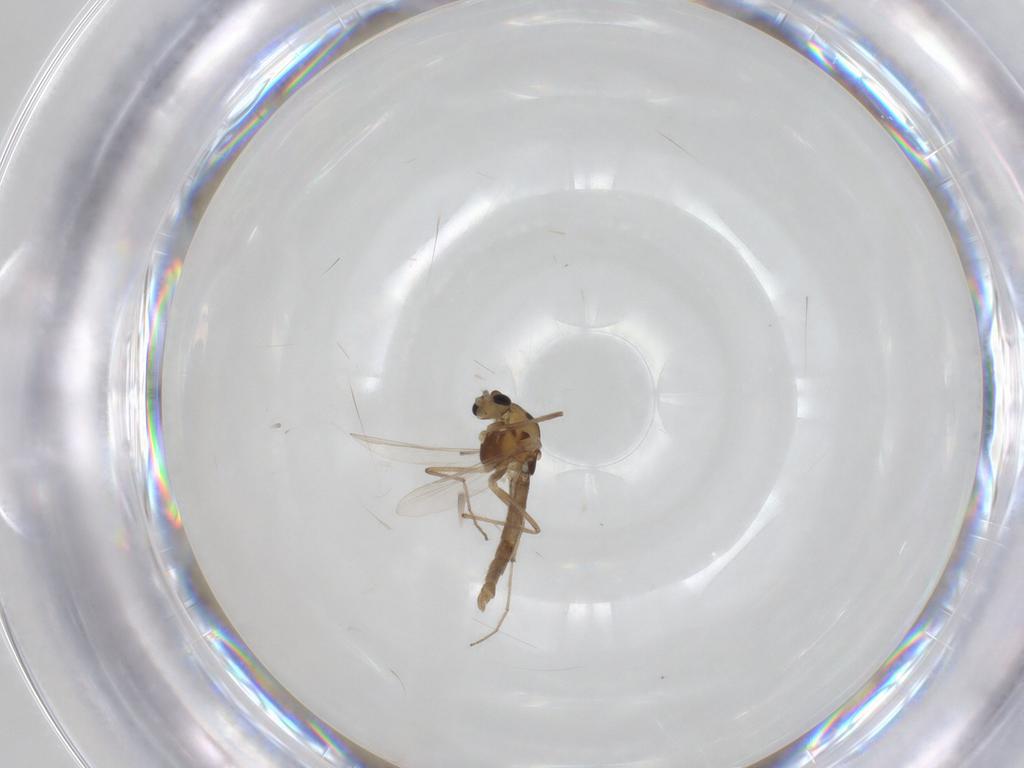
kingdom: Animalia
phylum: Arthropoda
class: Insecta
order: Diptera
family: Chironomidae
